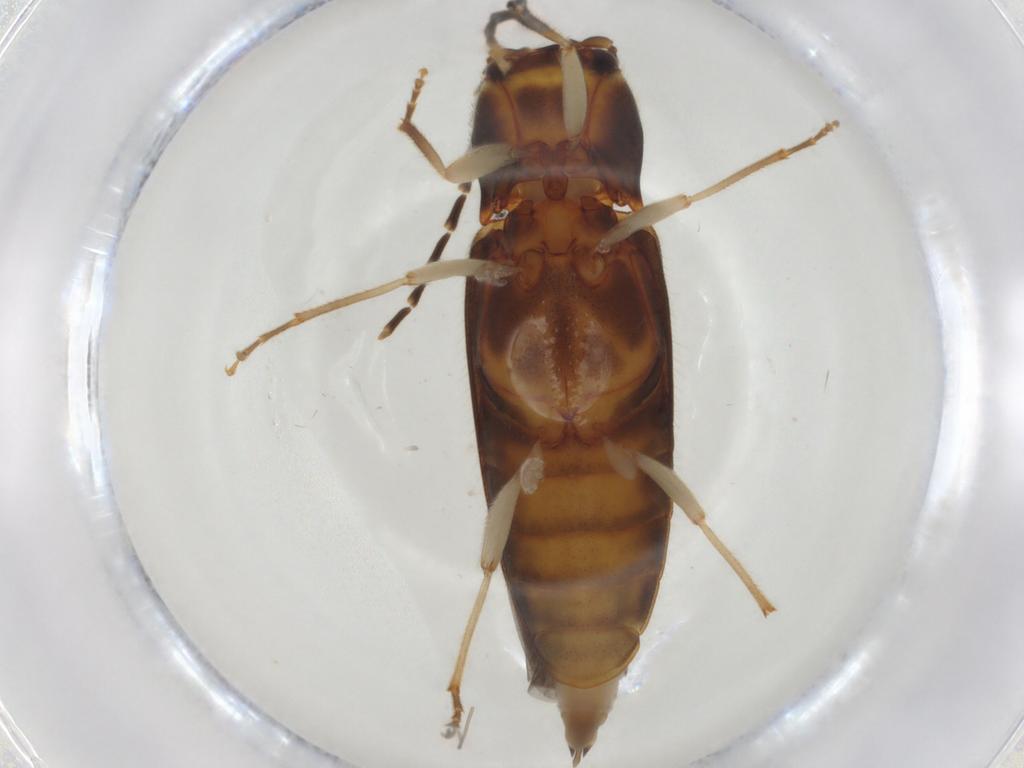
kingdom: Animalia
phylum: Arthropoda
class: Insecta
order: Coleoptera
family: Elateridae
